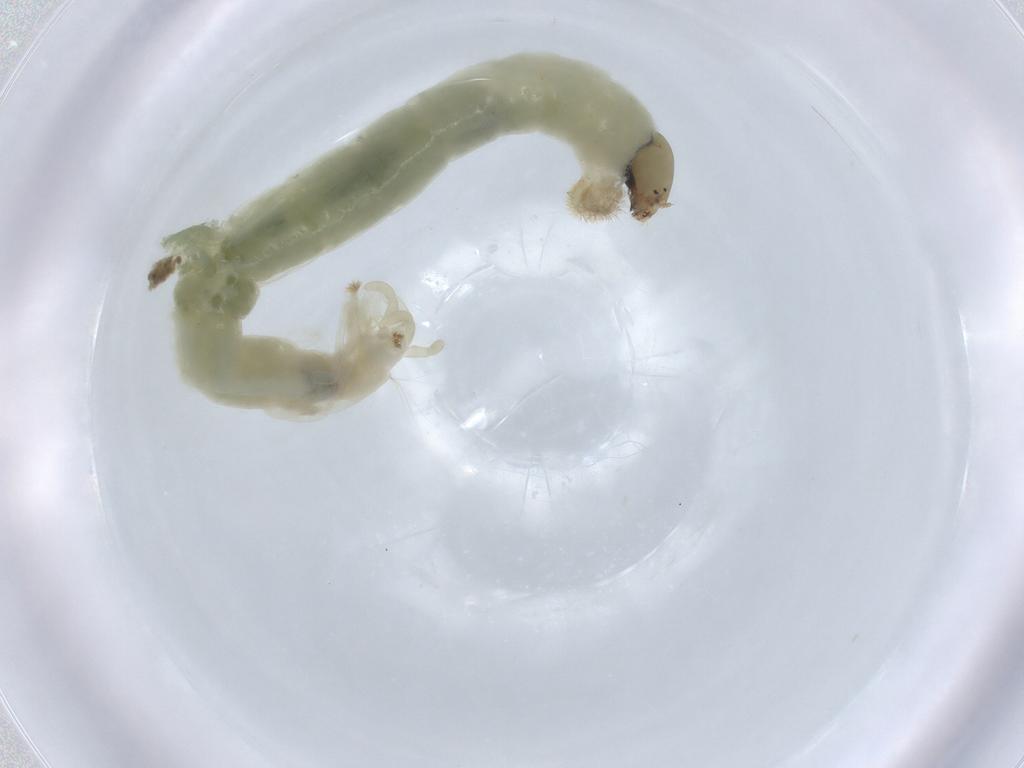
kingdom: Animalia
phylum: Arthropoda
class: Insecta
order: Diptera
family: Chironomidae
